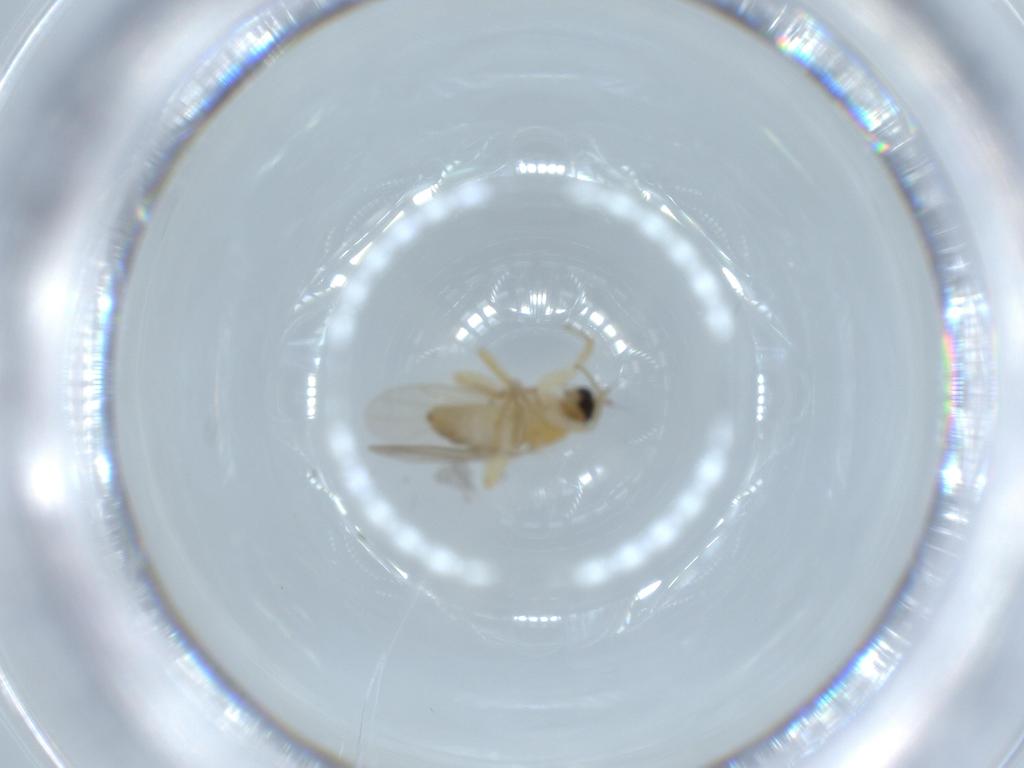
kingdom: Animalia
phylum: Arthropoda
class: Insecta
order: Diptera
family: Hybotidae
